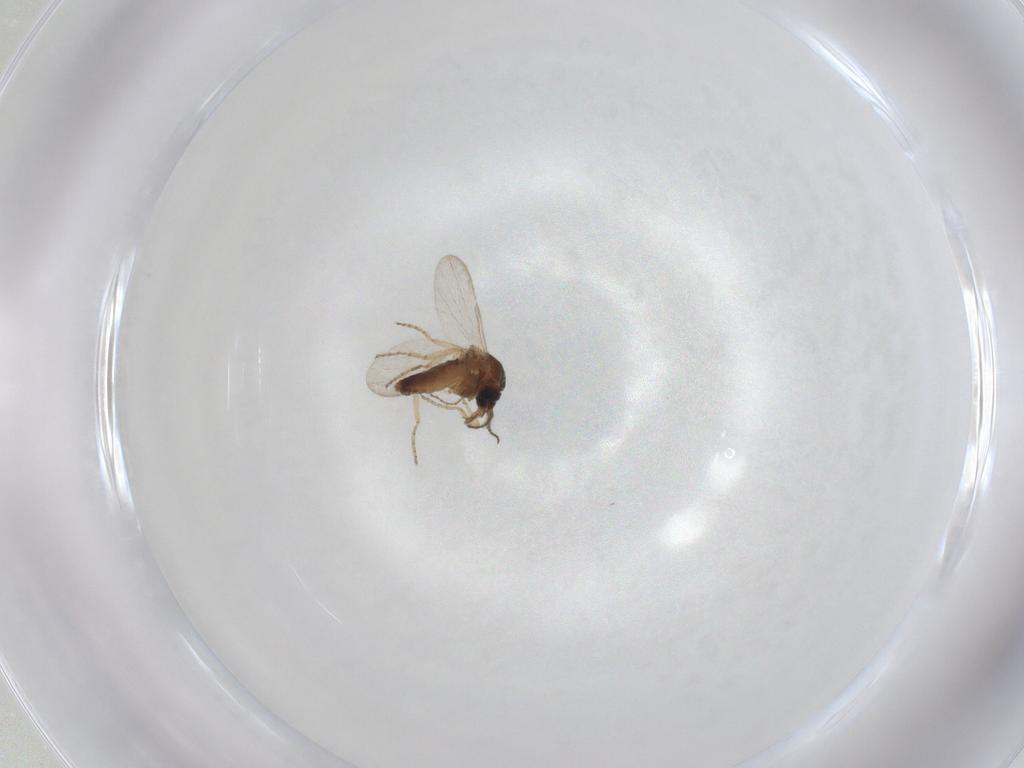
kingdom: Animalia
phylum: Arthropoda
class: Insecta
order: Diptera
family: Ceratopogonidae
